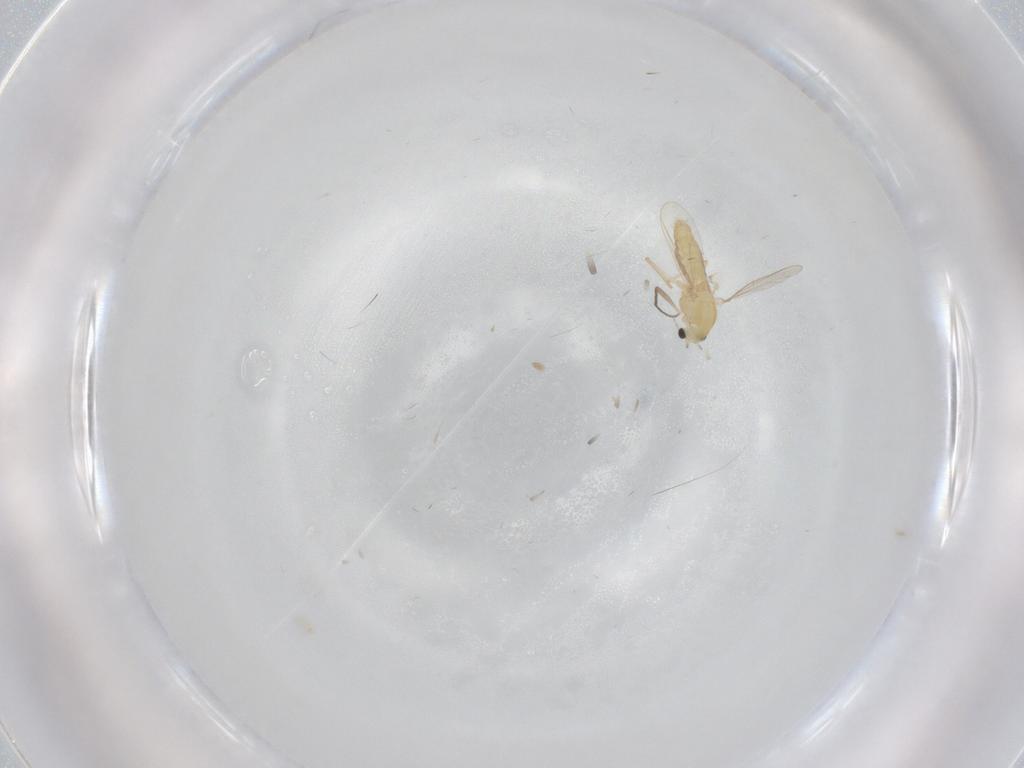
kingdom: Animalia
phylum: Arthropoda
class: Insecta
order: Diptera
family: Chironomidae
